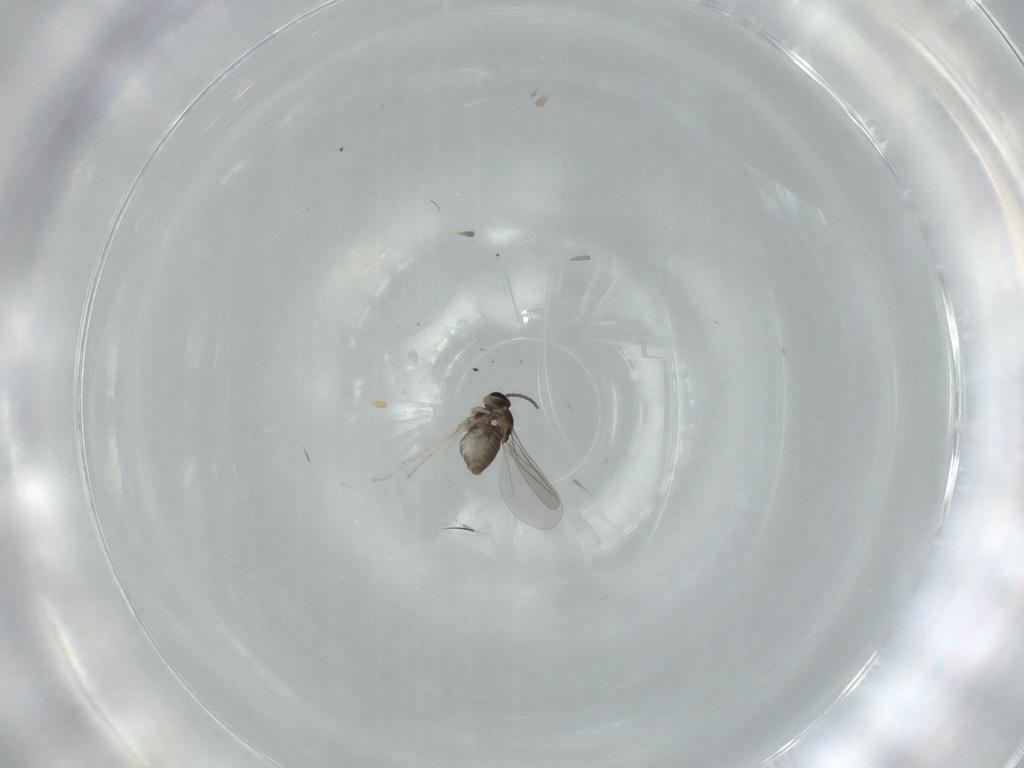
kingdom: Animalia
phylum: Arthropoda
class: Insecta
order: Diptera
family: Cecidomyiidae
